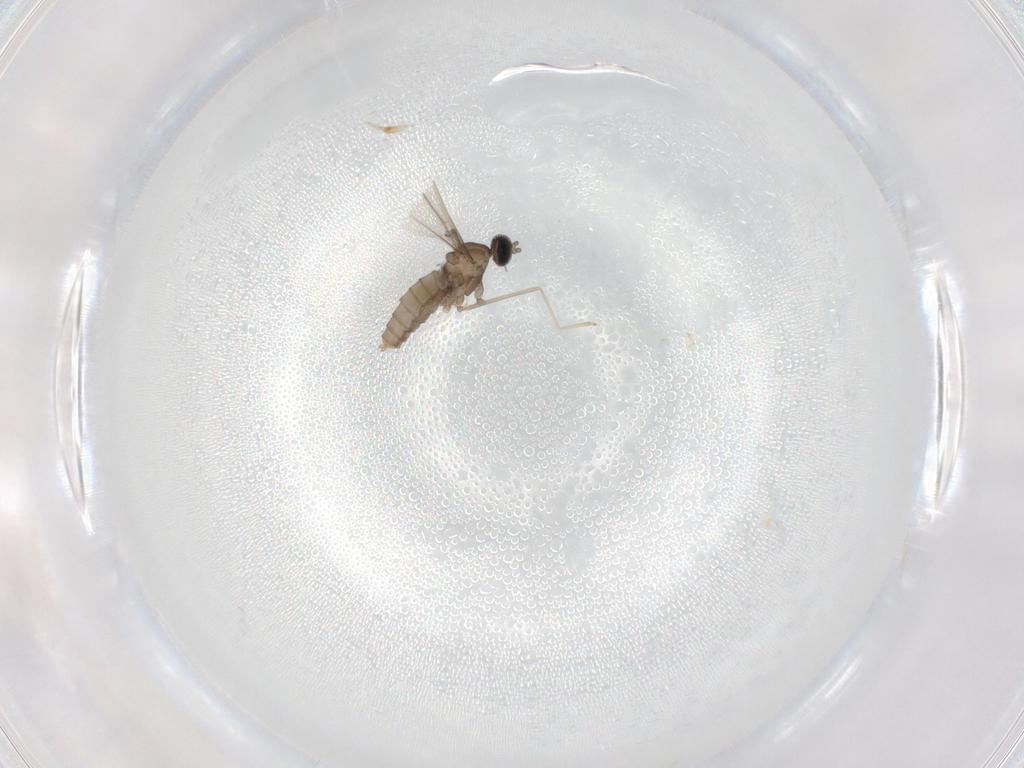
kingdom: Animalia
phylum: Arthropoda
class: Insecta
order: Diptera
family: Cecidomyiidae
